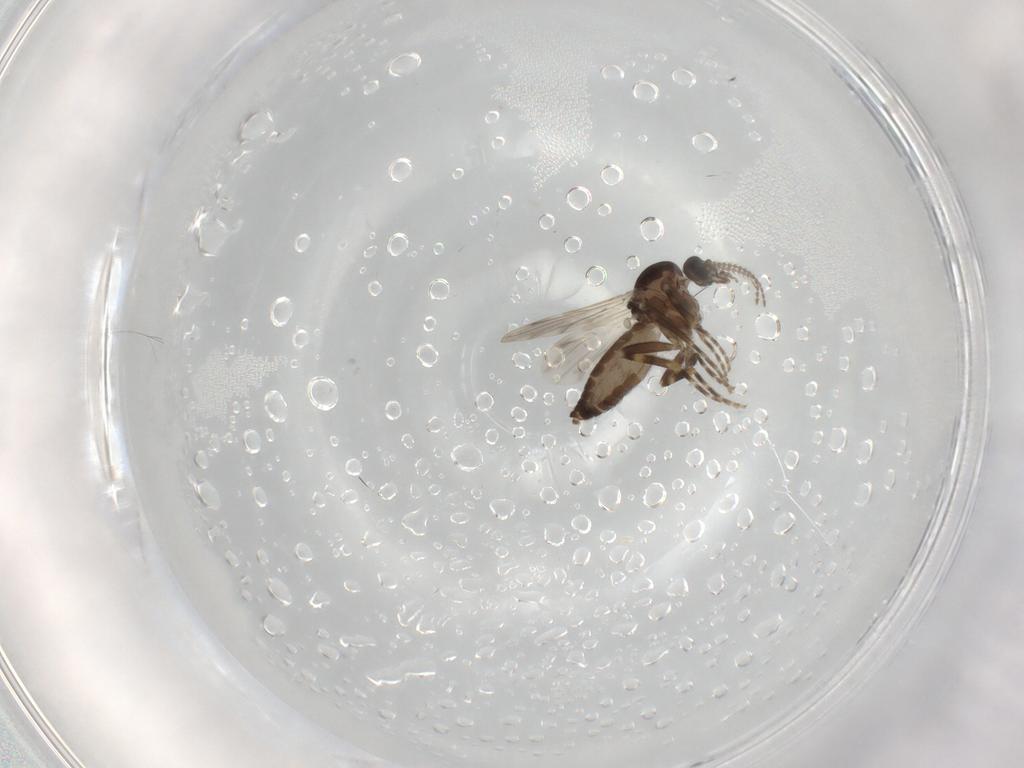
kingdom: Animalia
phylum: Arthropoda
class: Insecta
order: Diptera
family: Ceratopogonidae
